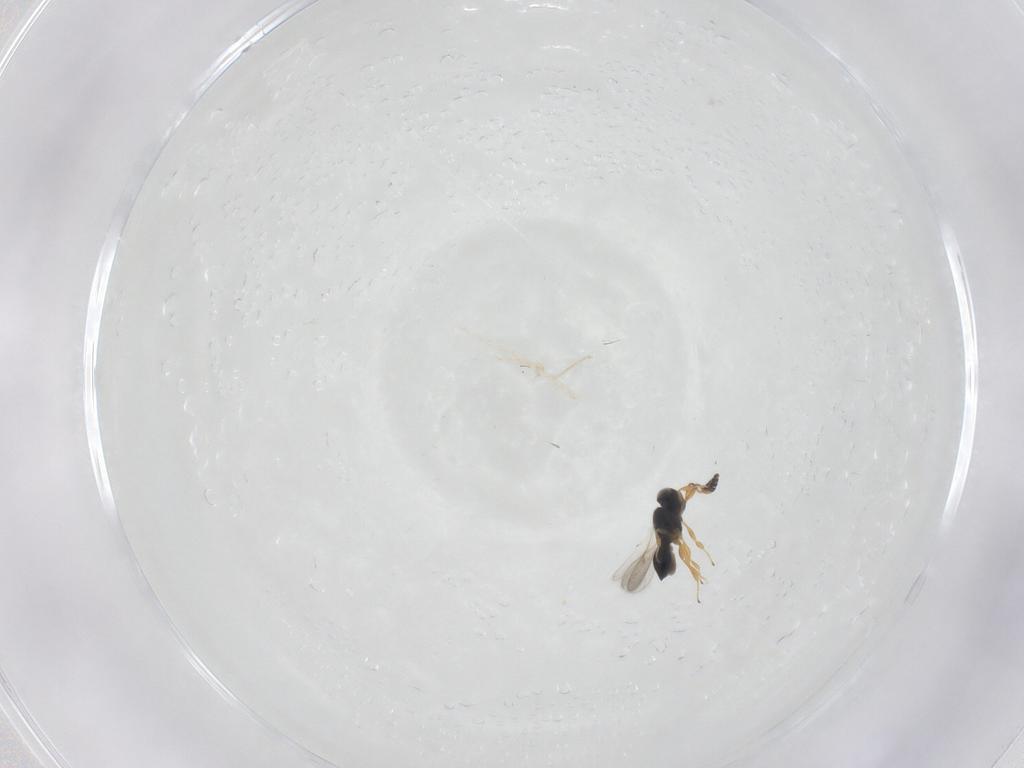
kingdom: Animalia
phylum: Arthropoda
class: Insecta
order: Hymenoptera
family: Scelionidae
